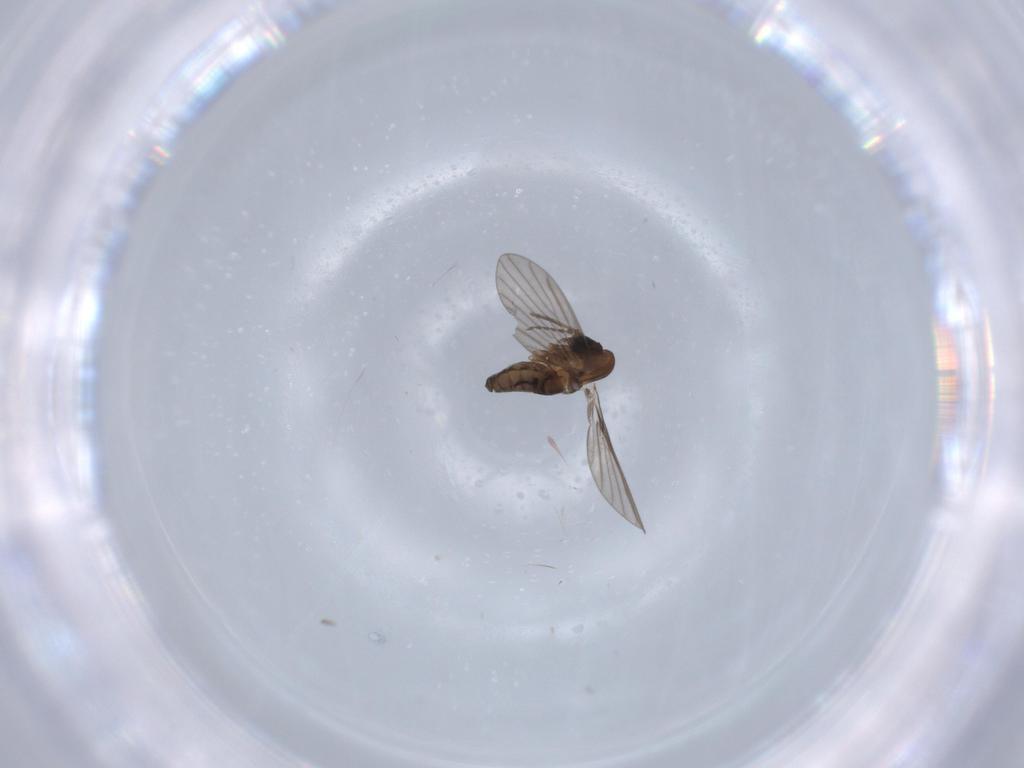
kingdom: Animalia
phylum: Arthropoda
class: Insecta
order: Diptera
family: Psychodidae
